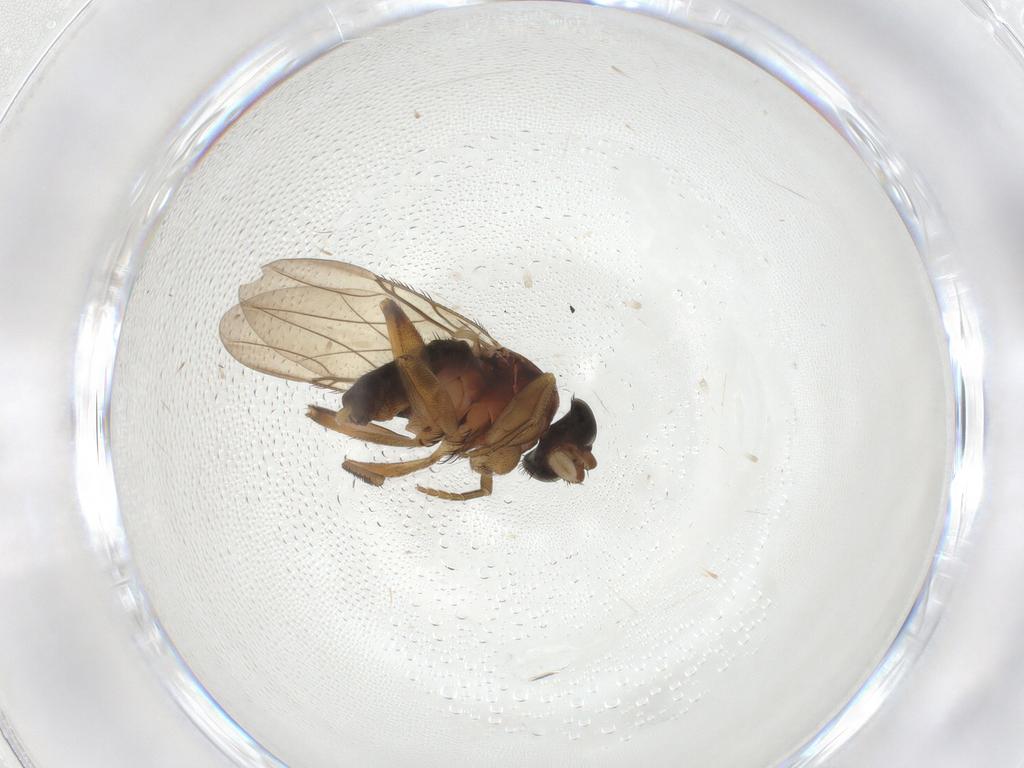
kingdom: Animalia
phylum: Arthropoda
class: Insecta
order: Diptera
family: Phoridae
